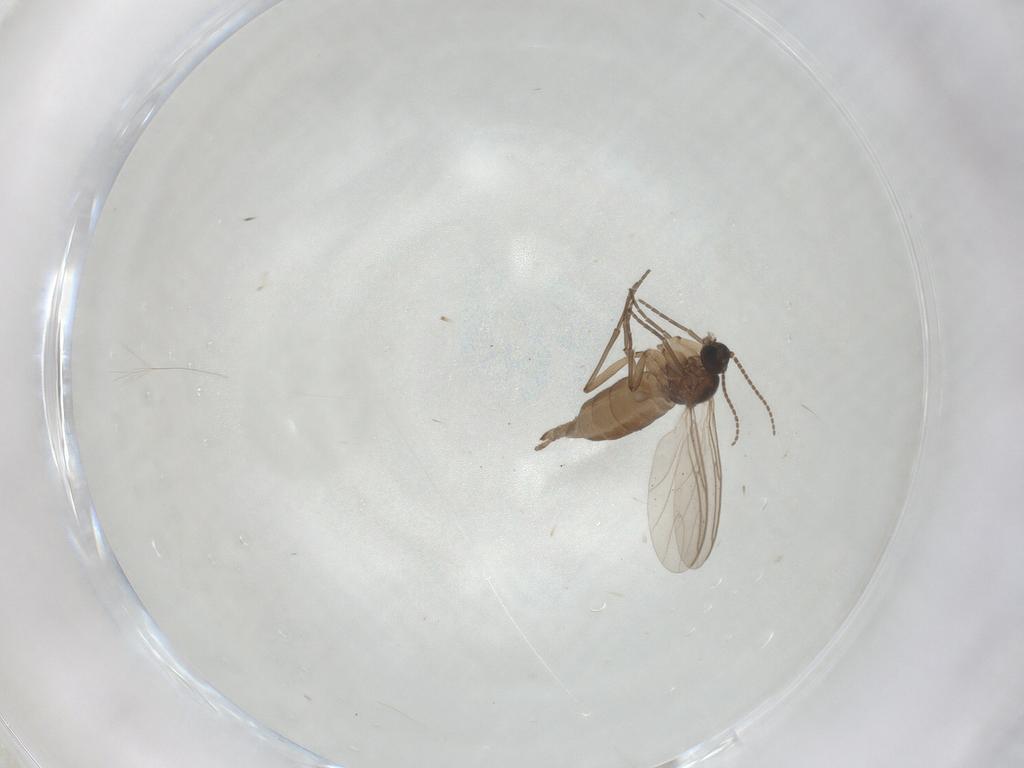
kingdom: Animalia
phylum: Arthropoda
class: Insecta
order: Diptera
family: Sciaridae
